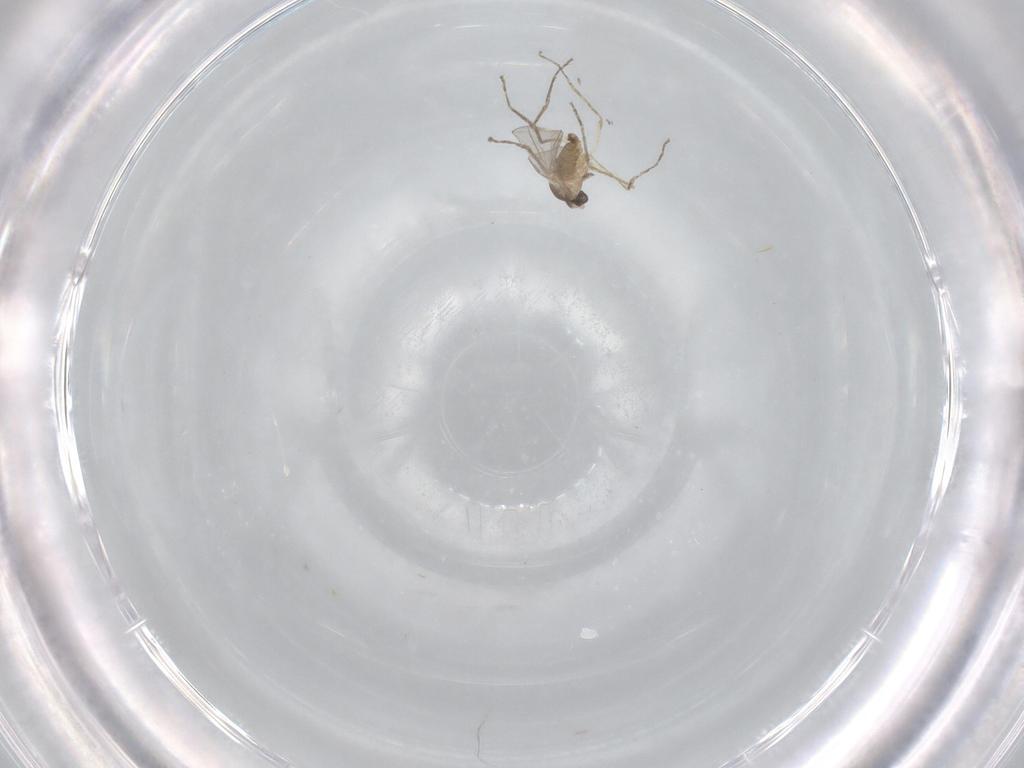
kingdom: Animalia
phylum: Arthropoda
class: Insecta
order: Diptera
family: Cecidomyiidae
